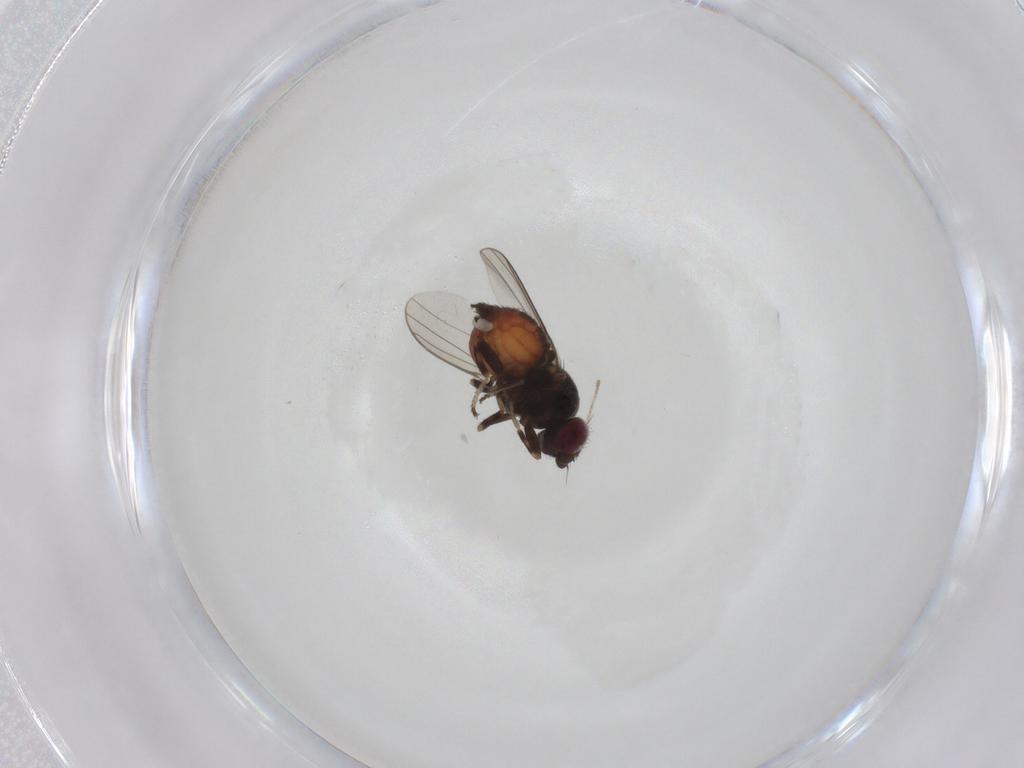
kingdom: Animalia
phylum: Arthropoda
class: Insecta
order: Diptera
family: Chloropidae
